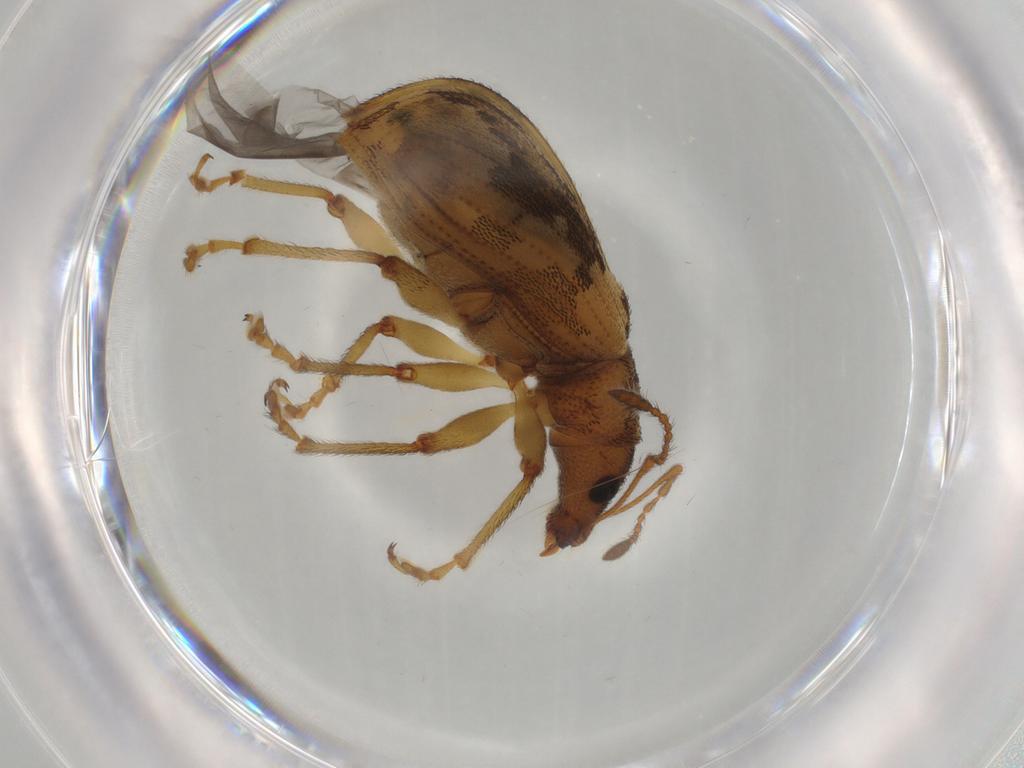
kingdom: Animalia
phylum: Arthropoda
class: Insecta
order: Coleoptera
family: Curculionidae
